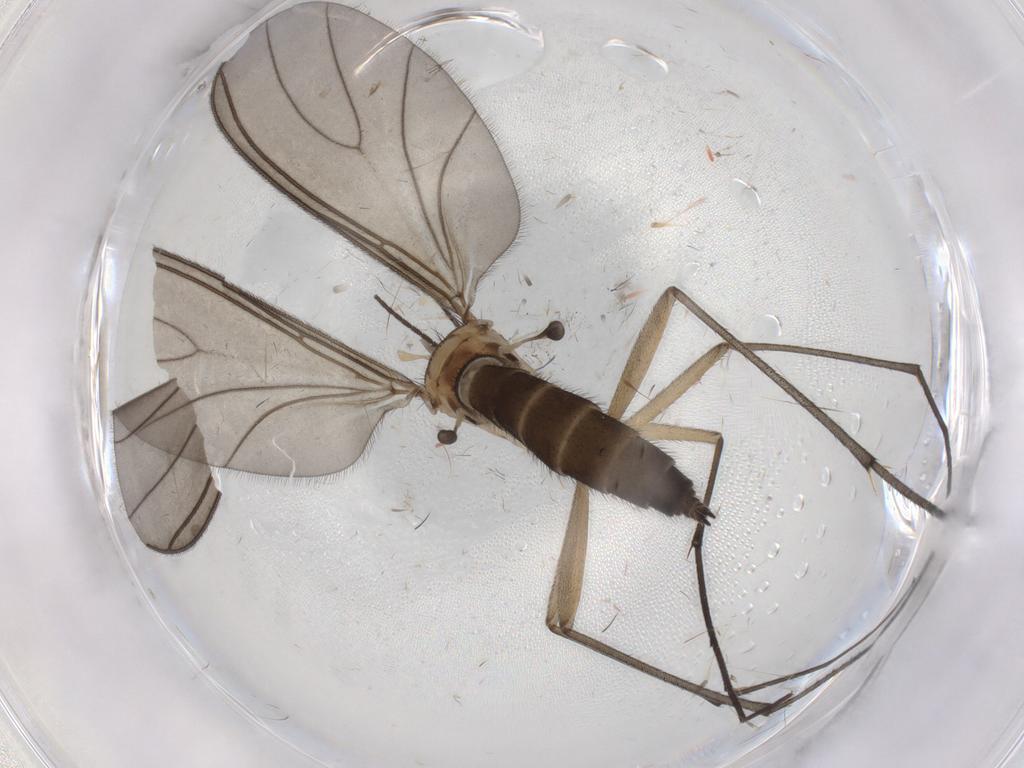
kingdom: Animalia
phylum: Arthropoda
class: Insecta
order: Diptera
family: Sciaridae
